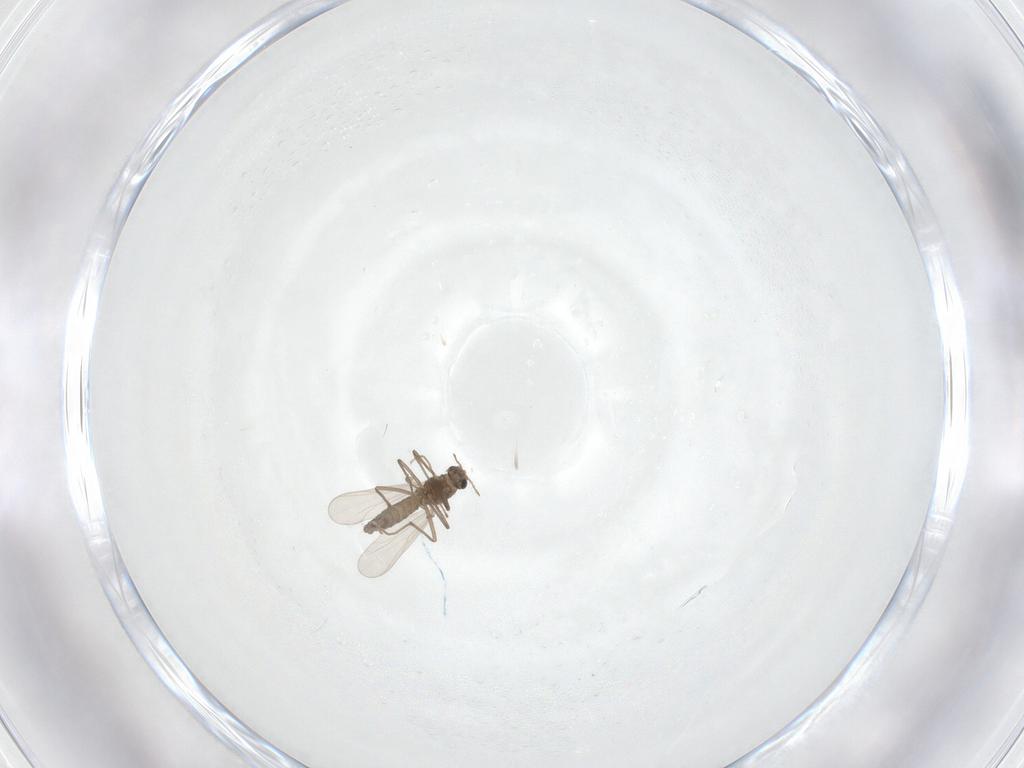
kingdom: Animalia
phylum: Arthropoda
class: Insecta
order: Diptera
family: Chironomidae
